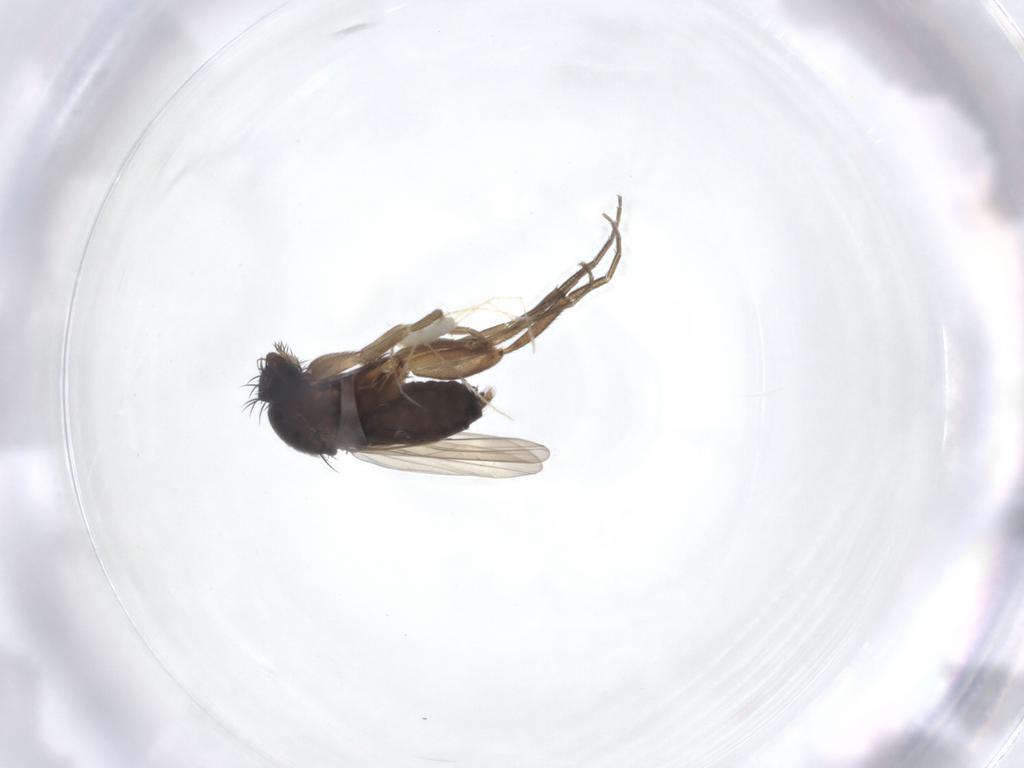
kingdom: Animalia
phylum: Arthropoda
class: Insecta
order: Diptera
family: Phoridae
